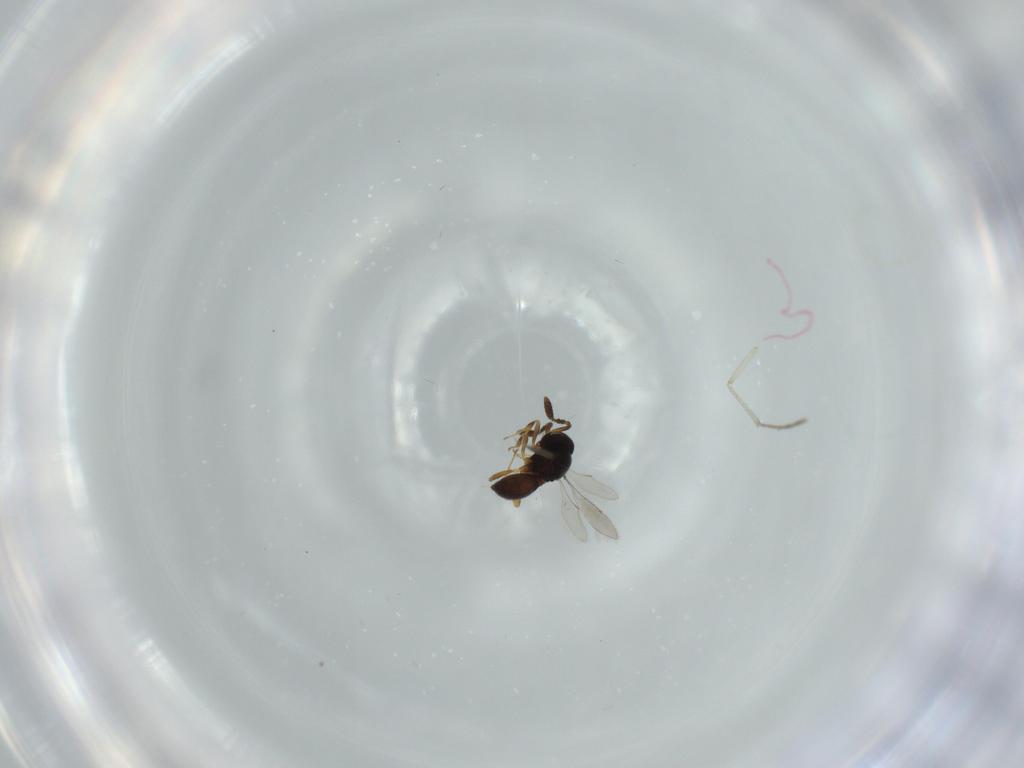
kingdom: Animalia
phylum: Arthropoda
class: Insecta
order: Hymenoptera
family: Scelionidae
